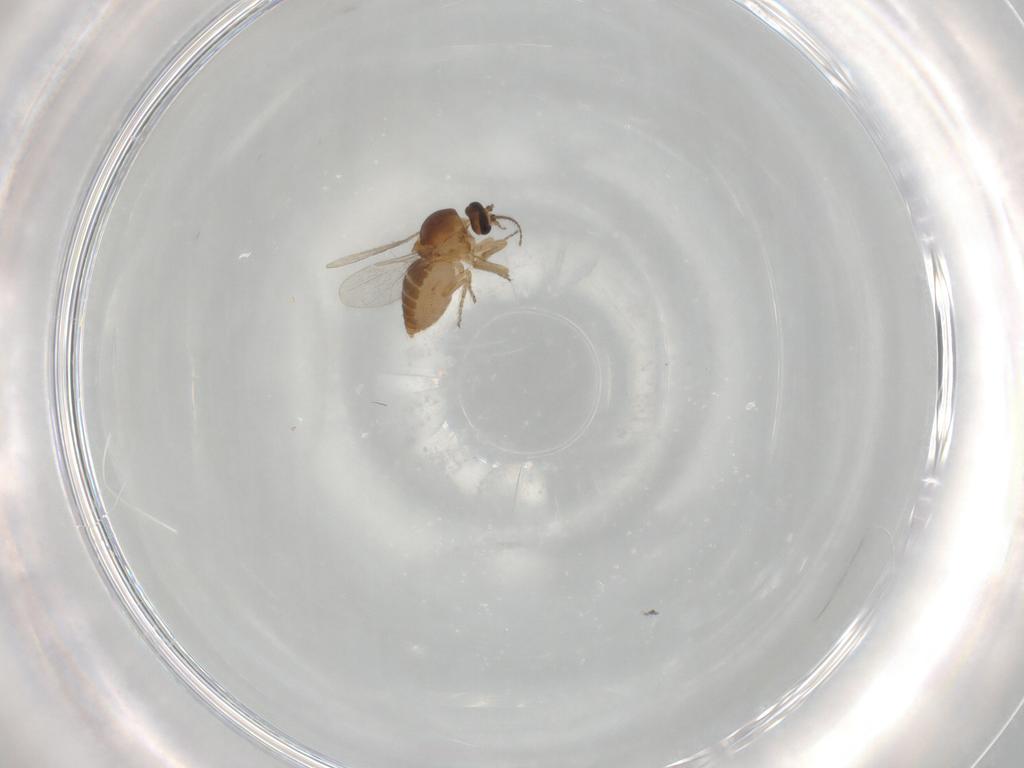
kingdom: Animalia
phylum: Arthropoda
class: Insecta
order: Diptera
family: Ceratopogonidae
